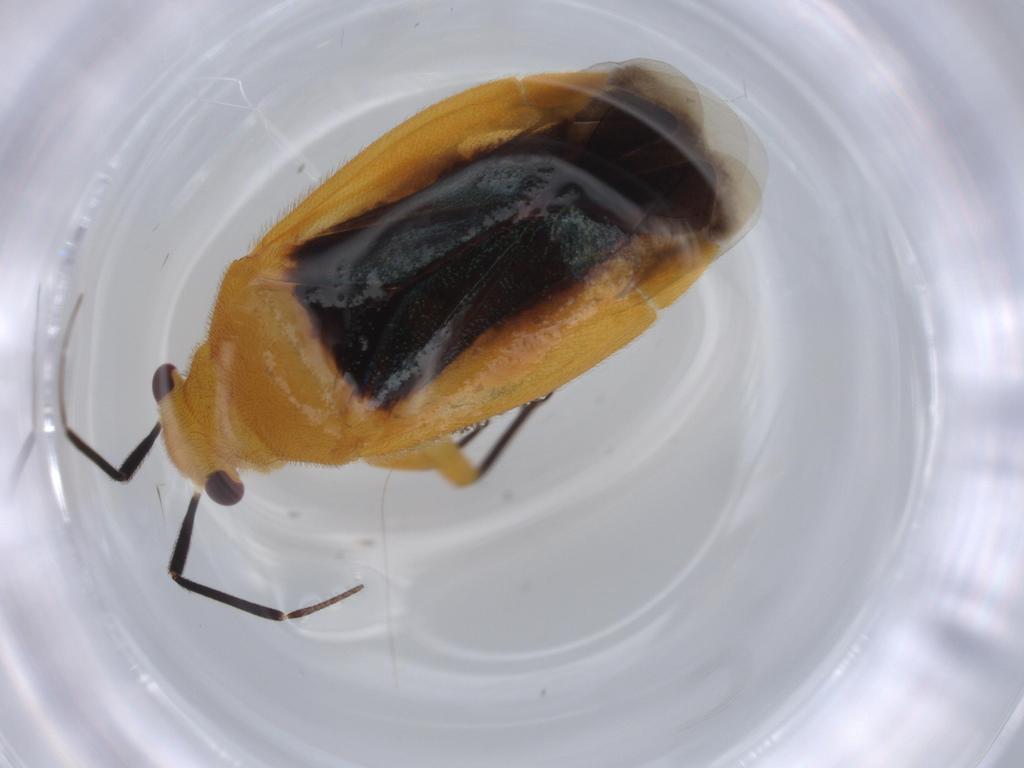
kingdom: Animalia
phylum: Arthropoda
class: Insecta
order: Hemiptera
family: Miridae
